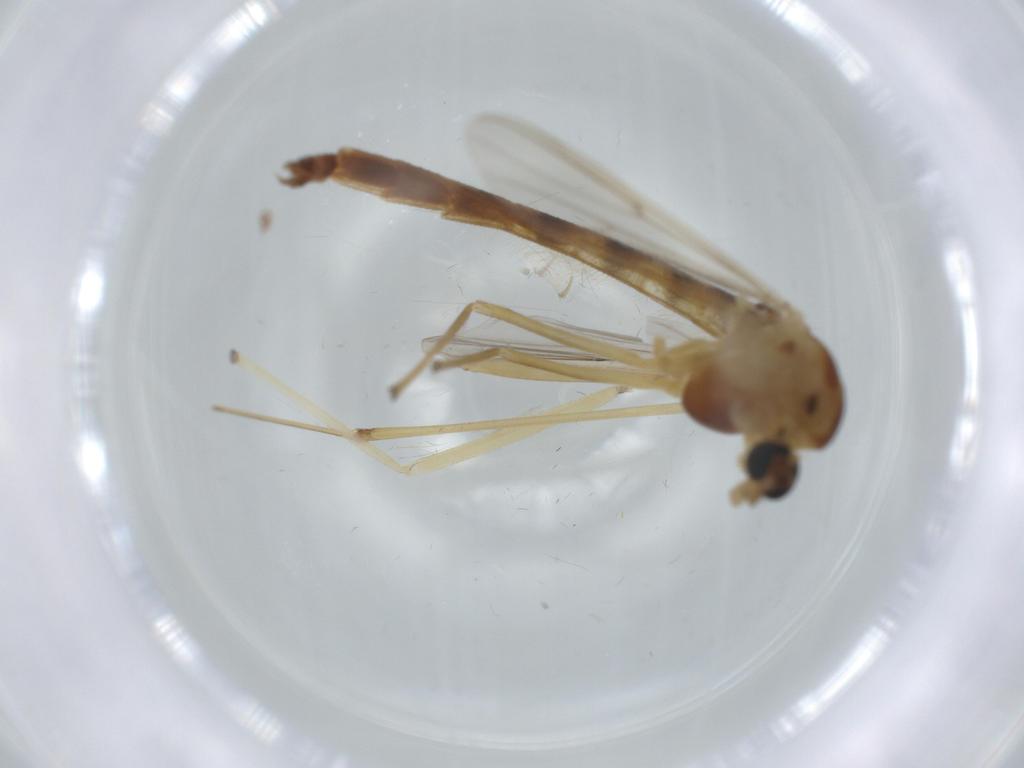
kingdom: Animalia
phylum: Arthropoda
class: Insecta
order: Diptera
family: Chironomidae
